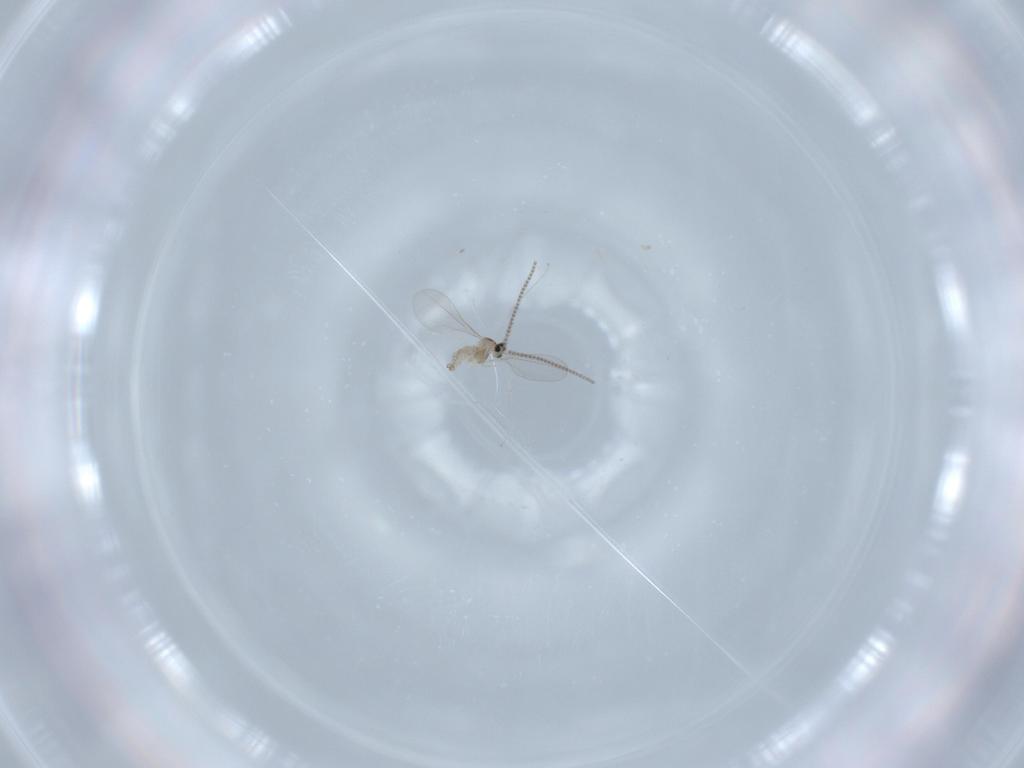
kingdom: Animalia
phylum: Arthropoda
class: Insecta
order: Diptera
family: Cecidomyiidae
